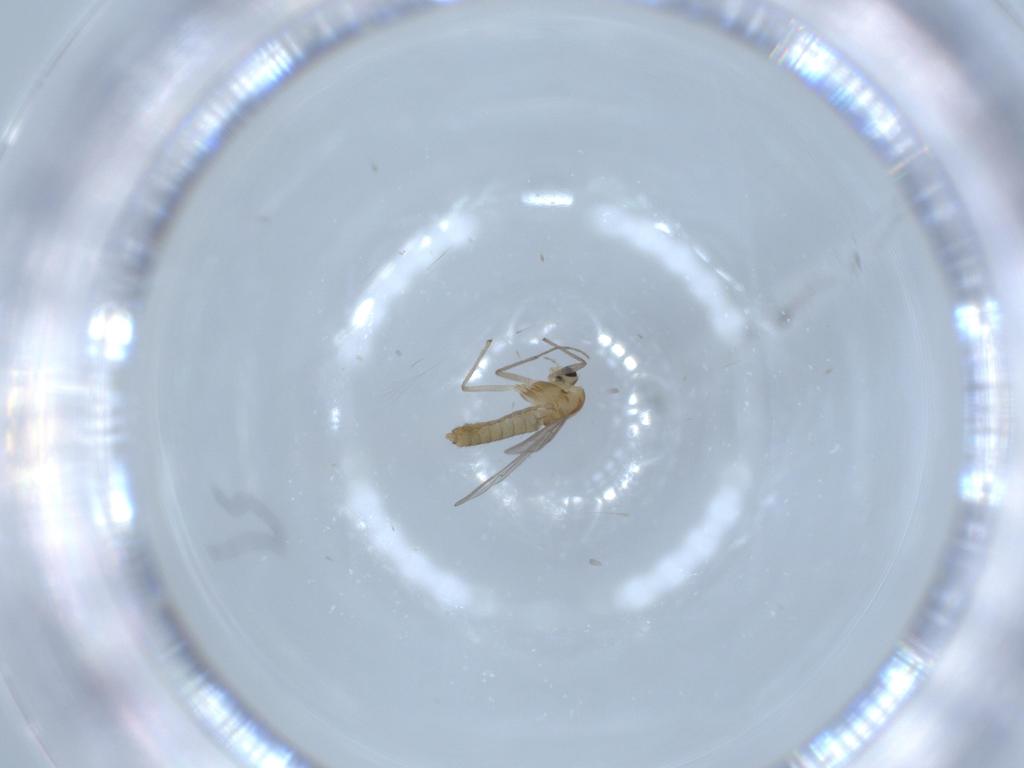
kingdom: Animalia
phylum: Arthropoda
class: Insecta
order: Diptera
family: Chironomidae
